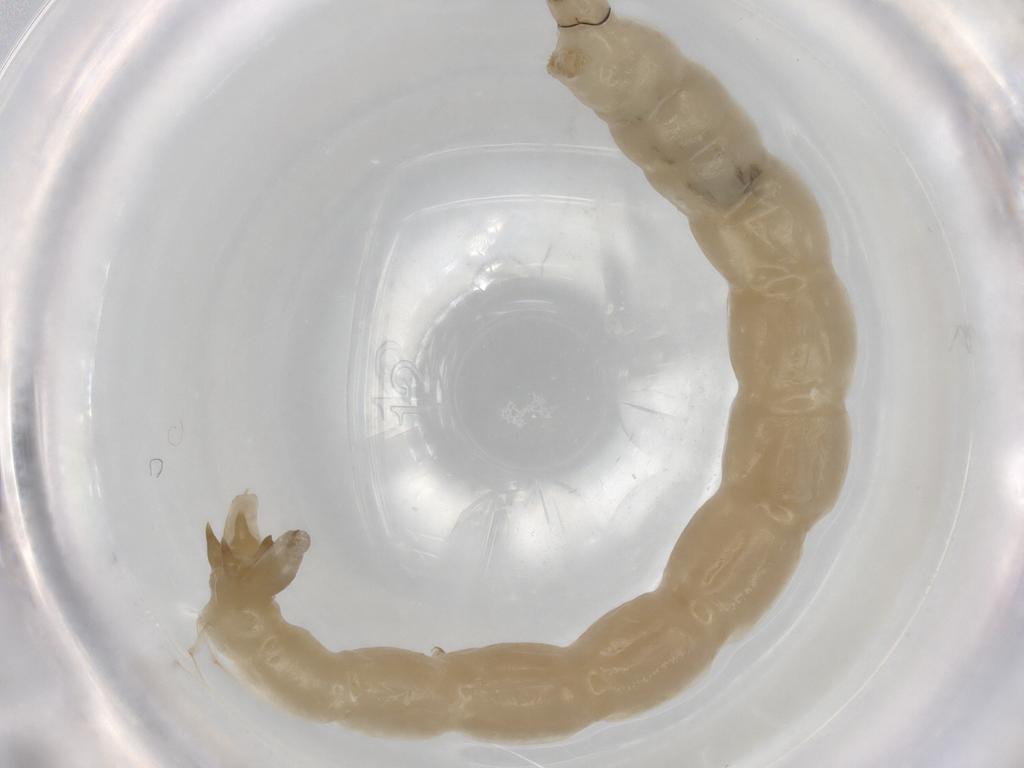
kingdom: Animalia
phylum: Arthropoda
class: Insecta
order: Diptera
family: Chironomidae
